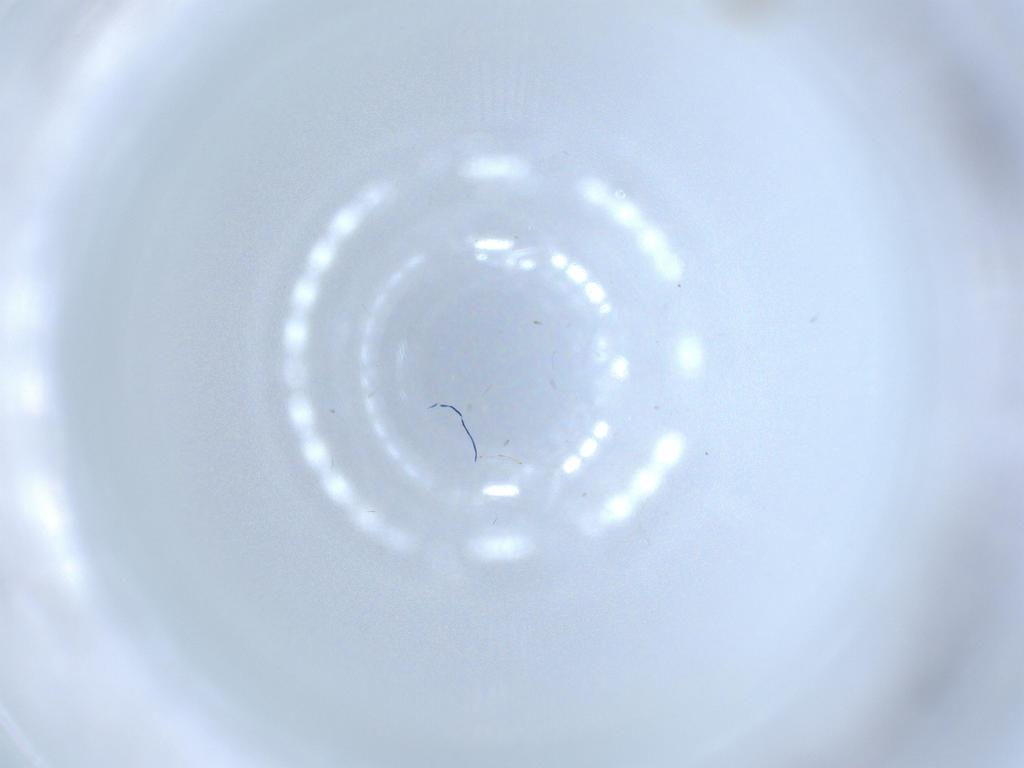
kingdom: Animalia
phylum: Arthropoda
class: Insecta
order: Hemiptera
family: Aleyrodidae
